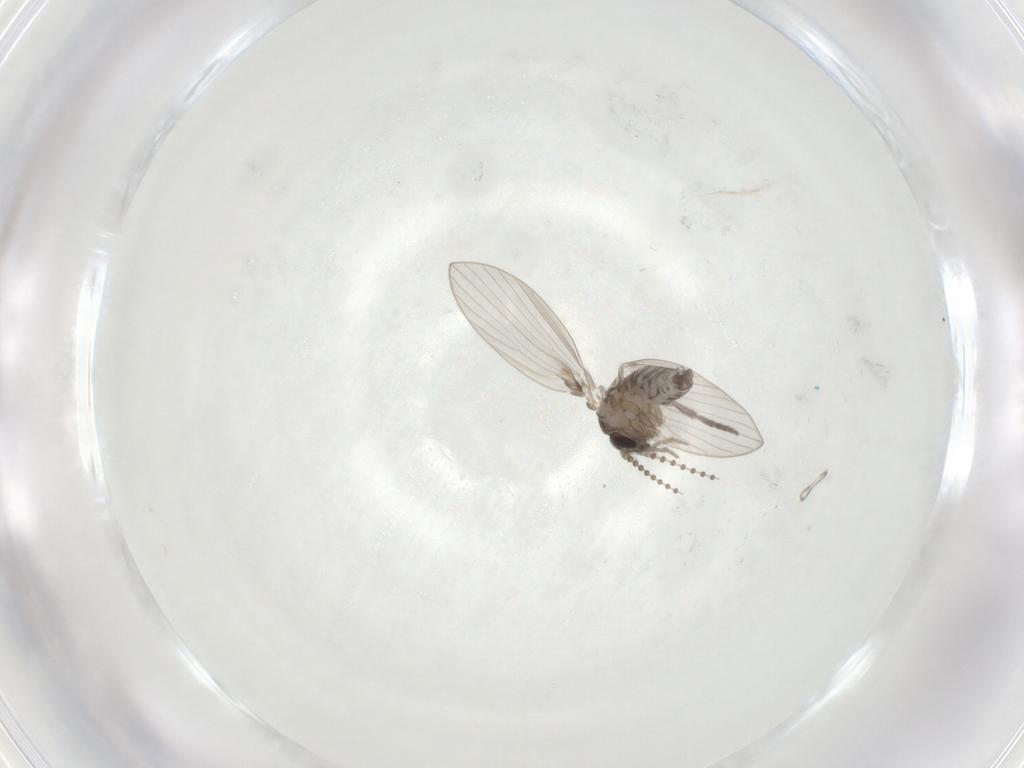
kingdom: Animalia
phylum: Arthropoda
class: Insecta
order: Diptera
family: Psychodidae
